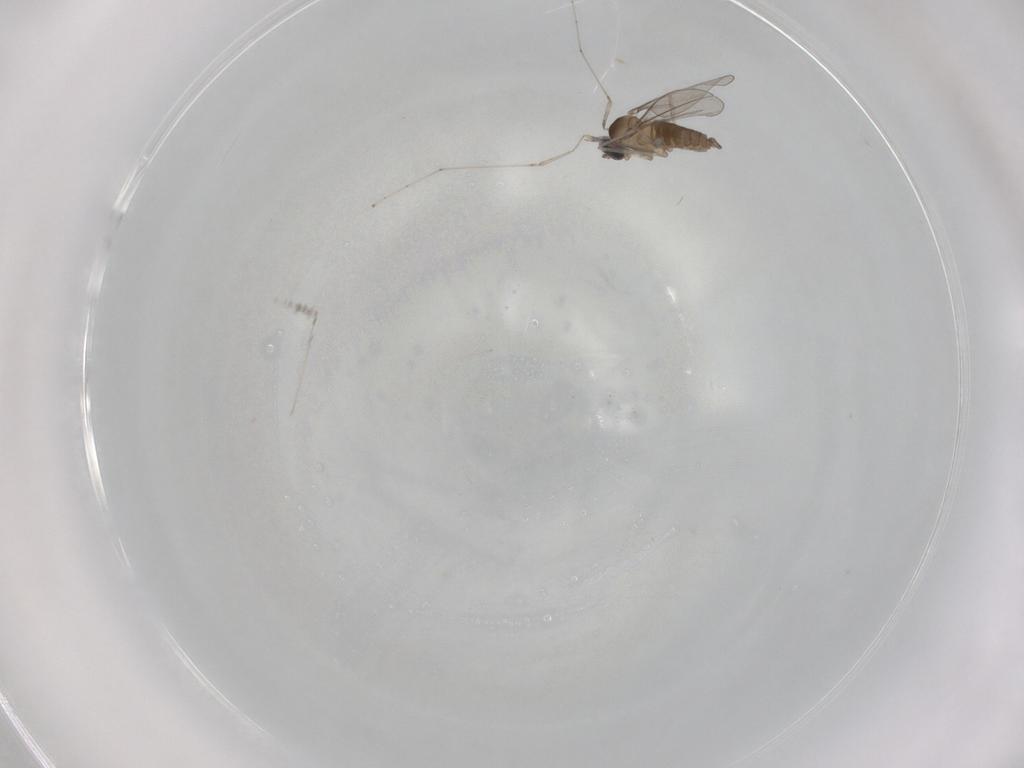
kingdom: Animalia
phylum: Arthropoda
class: Insecta
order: Diptera
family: Cecidomyiidae
